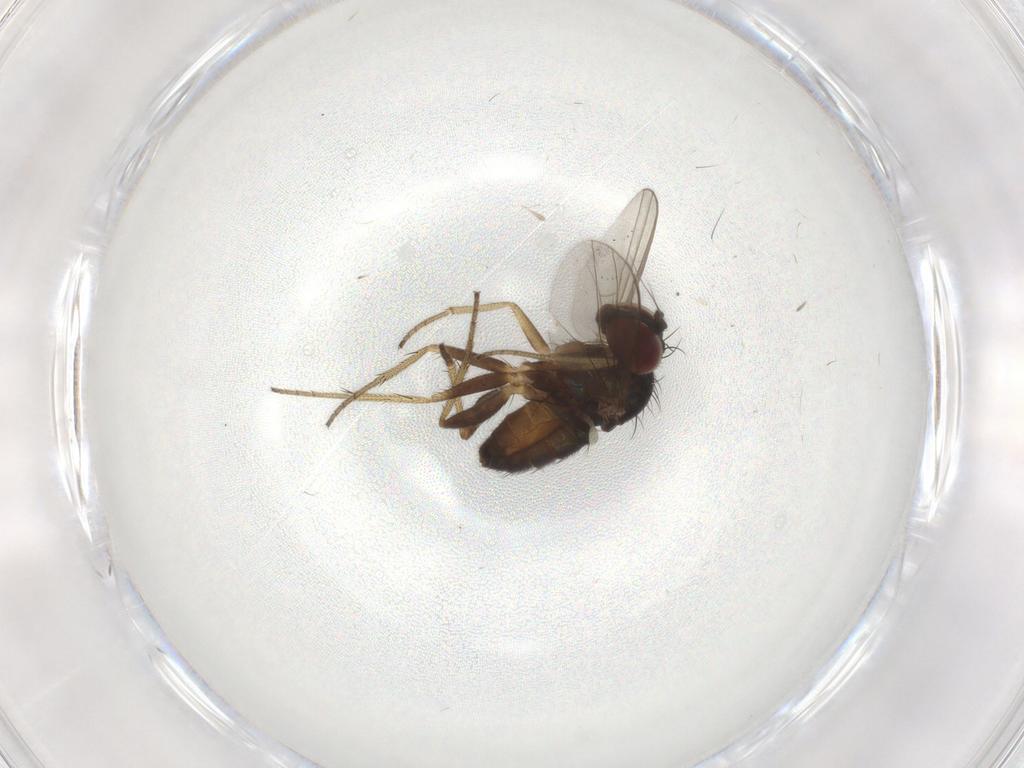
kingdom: Animalia
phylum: Arthropoda
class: Insecta
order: Diptera
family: Dolichopodidae
